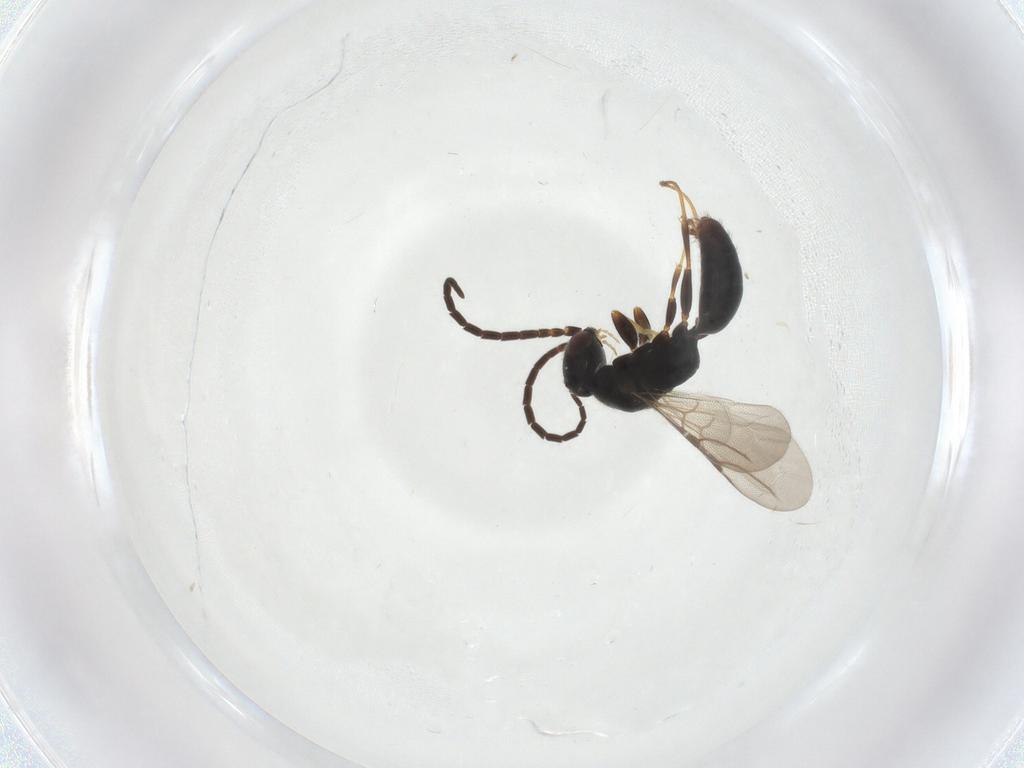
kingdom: Animalia
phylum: Arthropoda
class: Insecta
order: Hymenoptera
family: Bethylidae
